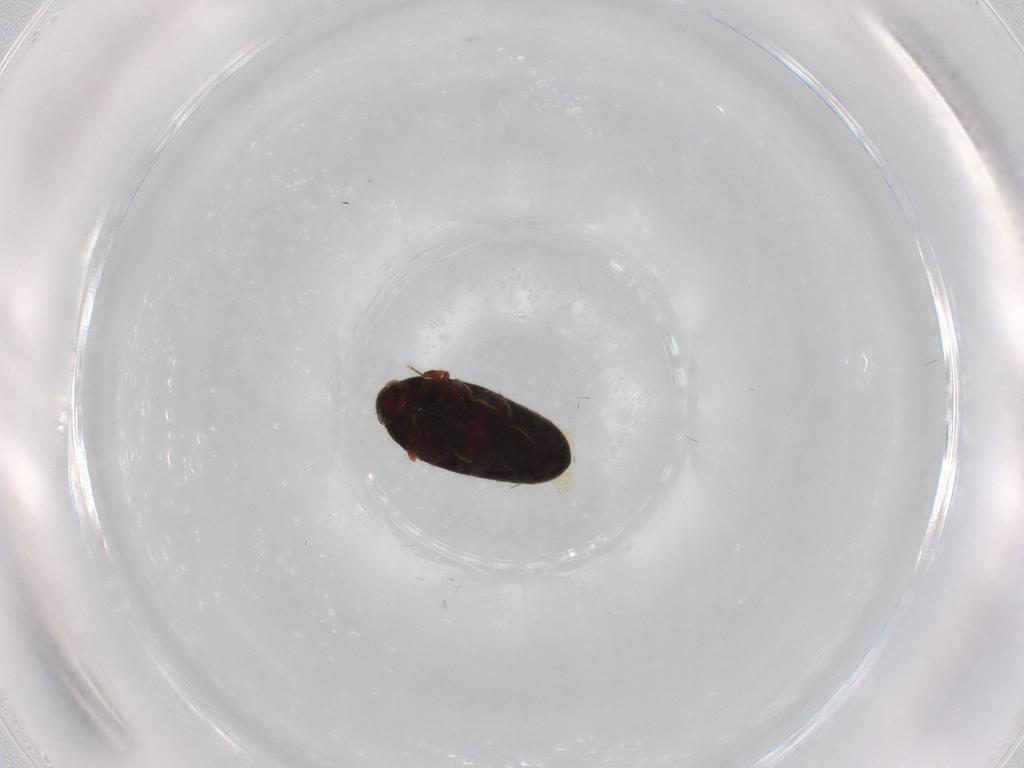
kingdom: Animalia
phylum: Arthropoda
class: Insecta
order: Coleoptera
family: Throscidae
